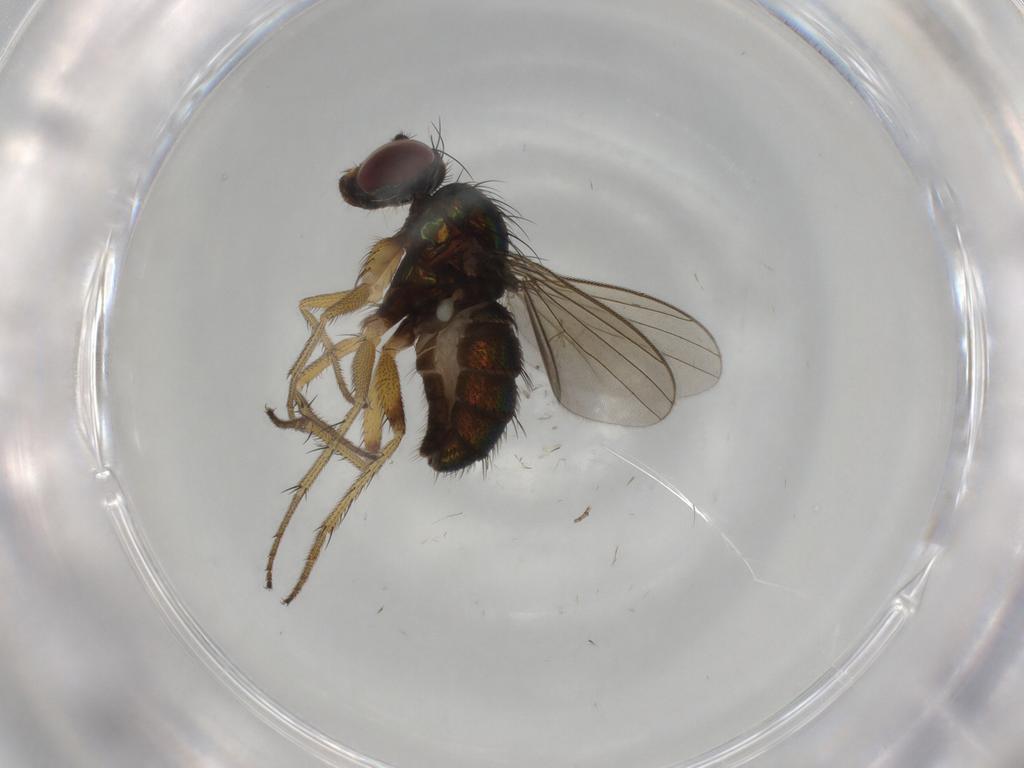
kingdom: Animalia
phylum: Arthropoda
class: Insecta
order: Diptera
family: Dolichopodidae
